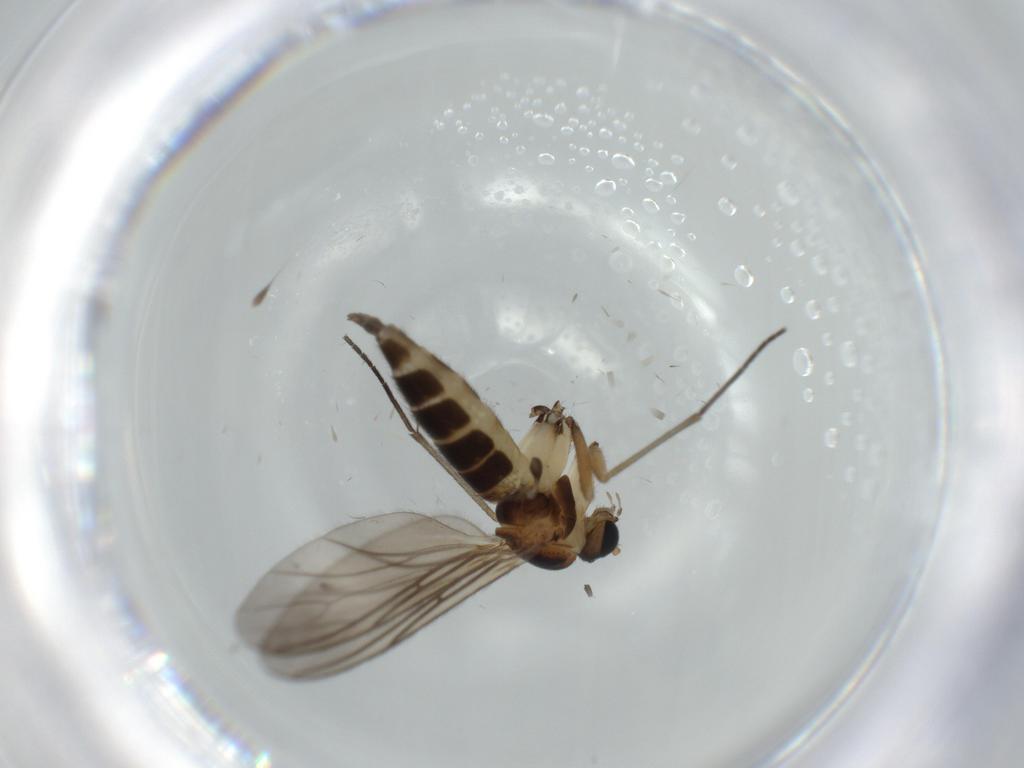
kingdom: Animalia
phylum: Arthropoda
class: Insecta
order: Diptera
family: Sciaridae
